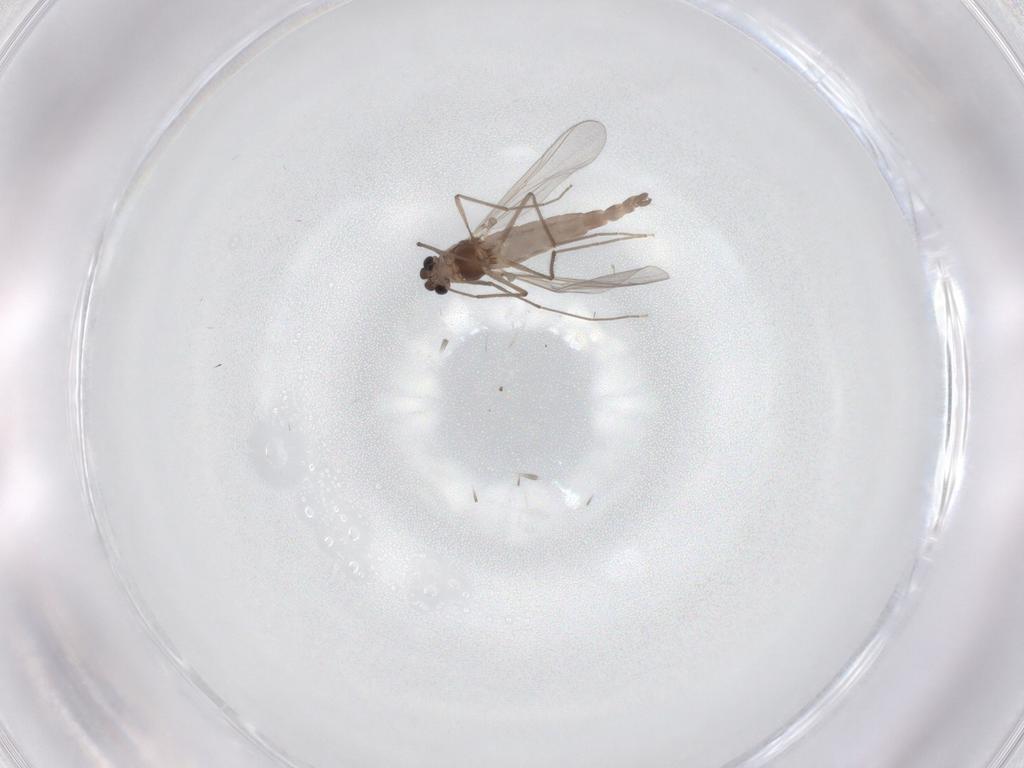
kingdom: Animalia
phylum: Arthropoda
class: Insecta
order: Diptera
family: Chironomidae
